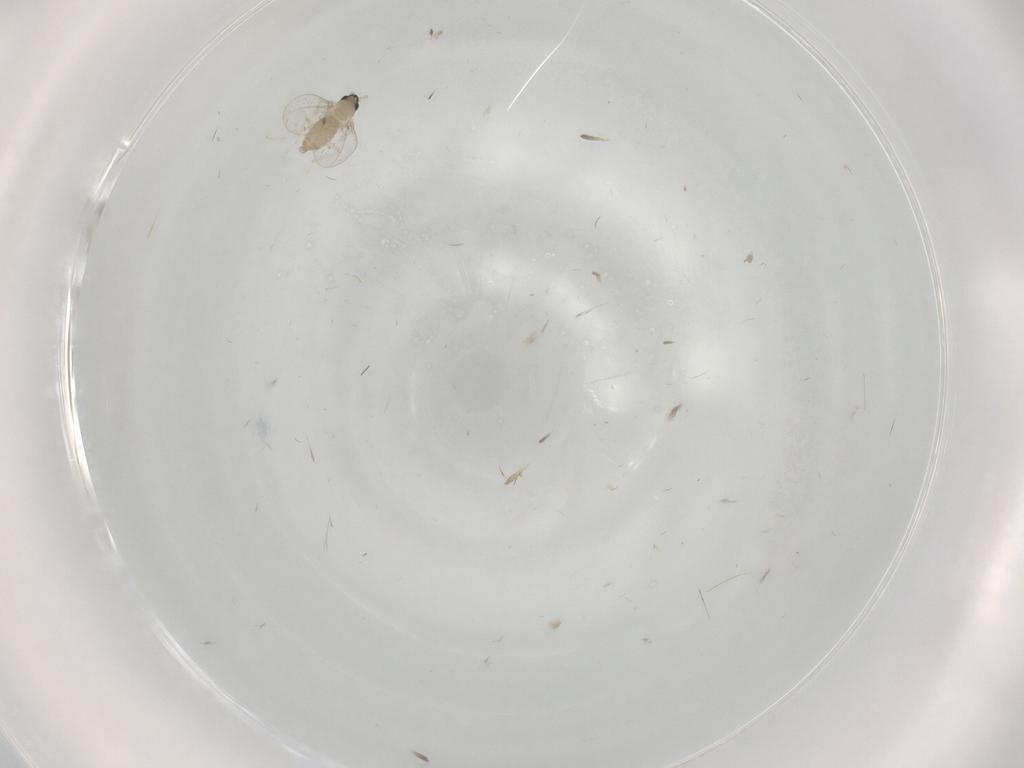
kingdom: Animalia
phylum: Arthropoda
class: Insecta
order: Diptera
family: Cecidomyiidae
